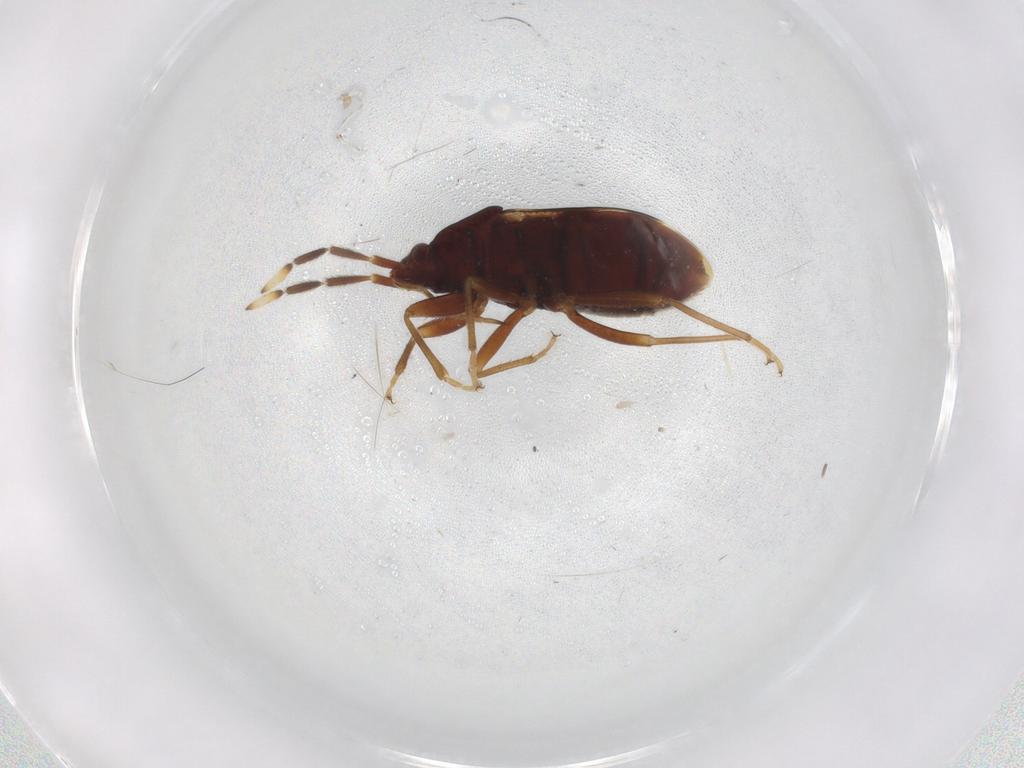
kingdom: Animalia
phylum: Arthropoda
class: Insecta
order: Hemiptera
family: Rhyparochromidae
